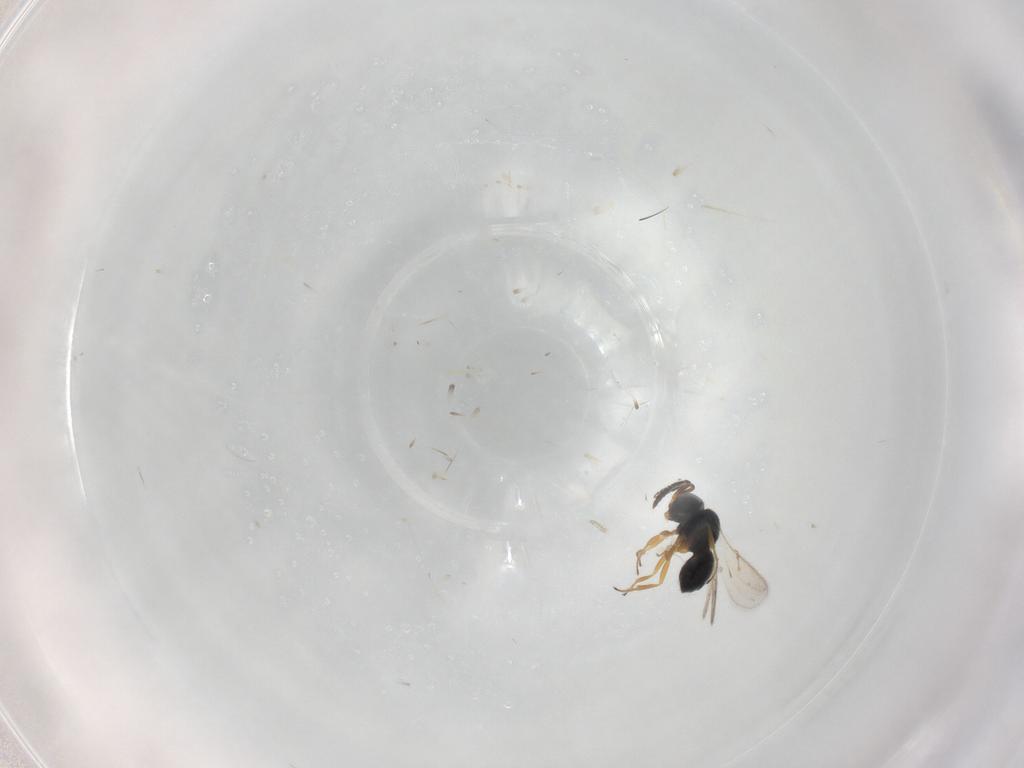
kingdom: Animalia
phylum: Arthropoda
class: Insecta
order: Hymenoptera
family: Scelionidae
